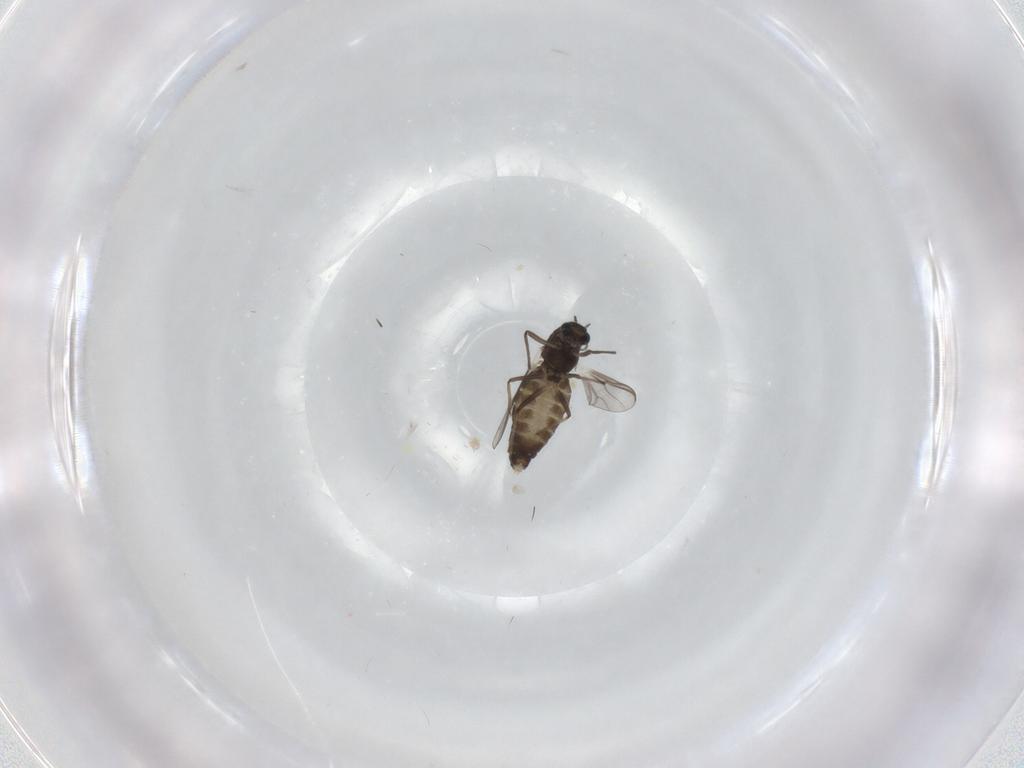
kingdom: Animalia
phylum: Arthropoda
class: Insecta
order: Diptera
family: Chironomidae
